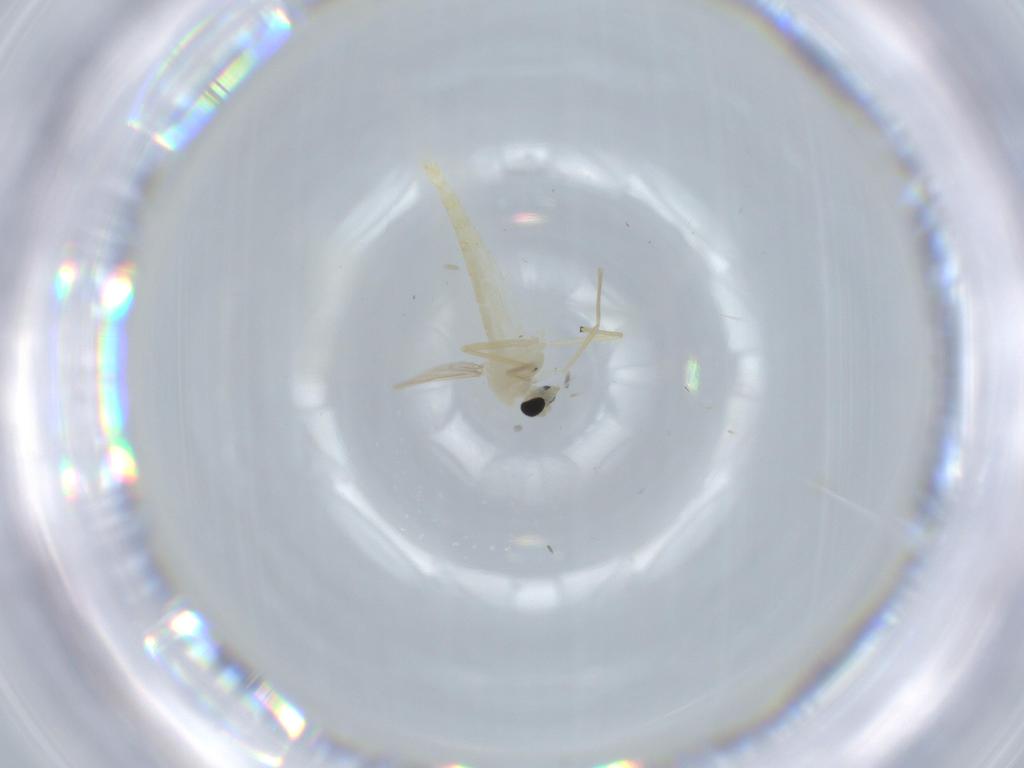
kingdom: Animalia
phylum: Arthropoda
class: Insecta
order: Diptera
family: Chironomidae
